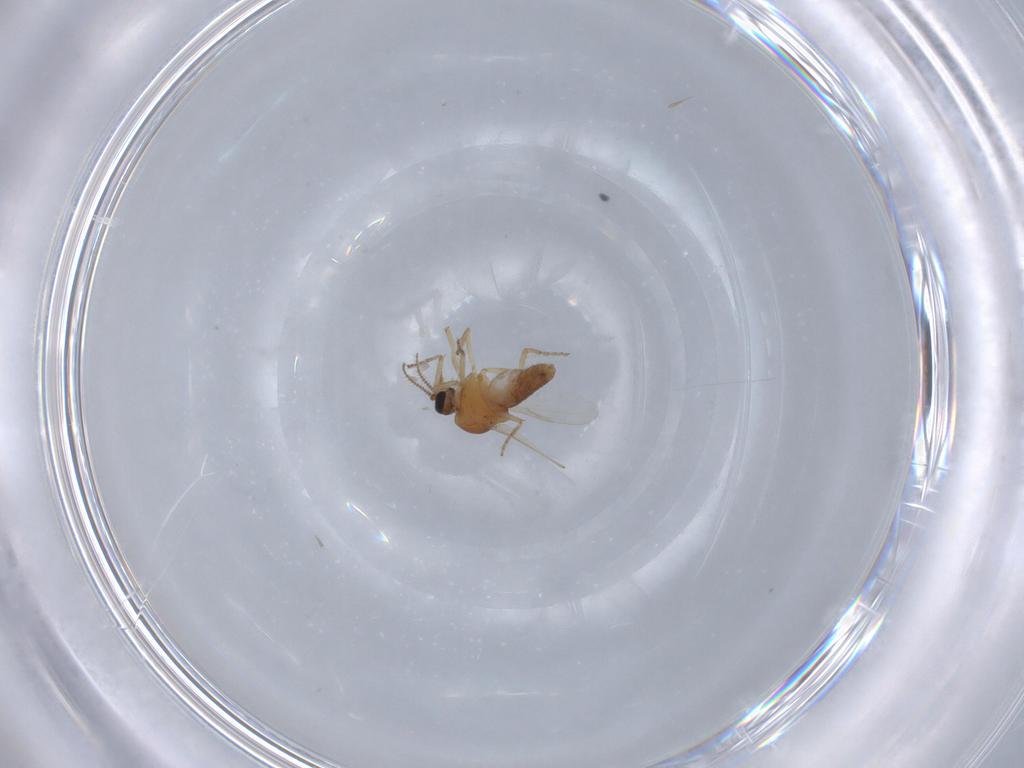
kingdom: Animalia
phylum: Arthropoda
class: Insecta
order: Diptera
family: Ceratopogonidae
